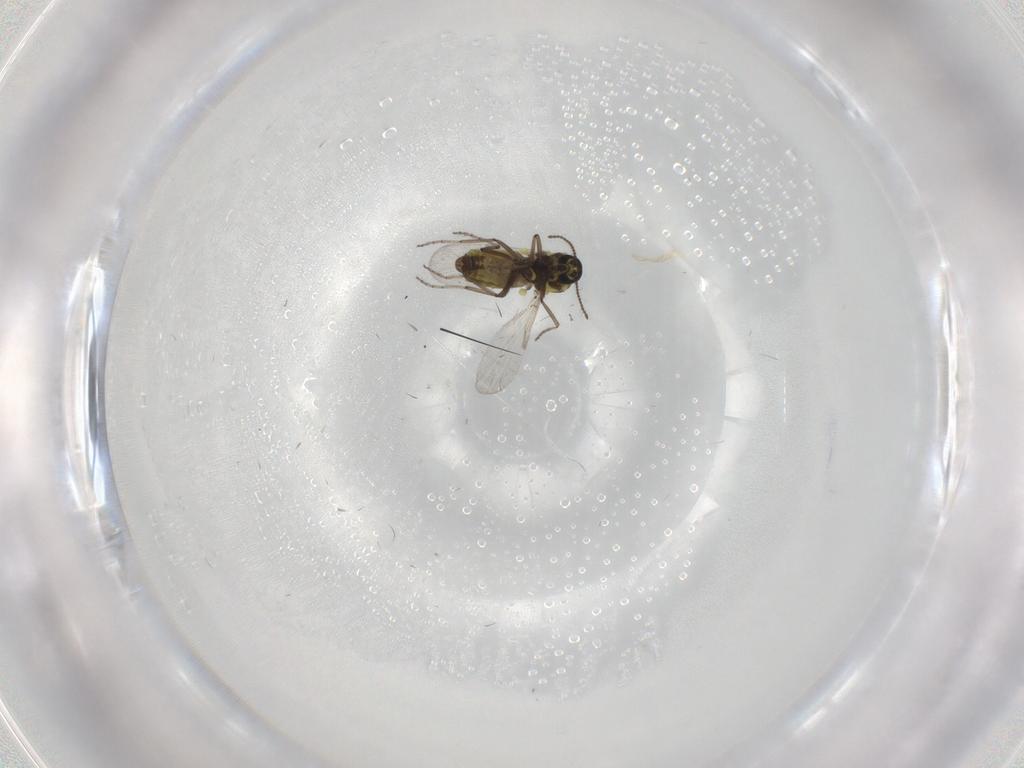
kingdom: Animalia
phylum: Arthropoda
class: Insecta
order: Diptera
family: Ceratopogonidae
